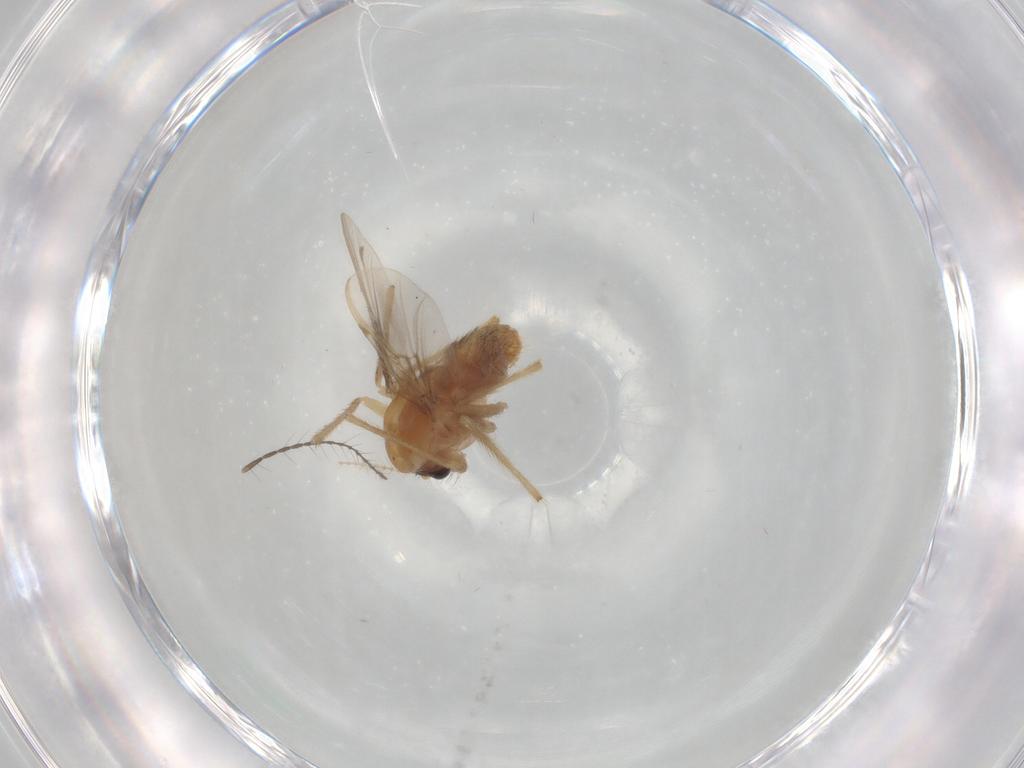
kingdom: Animalia
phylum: Arthropoda
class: Insecta
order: Diptera
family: Chironomidae
